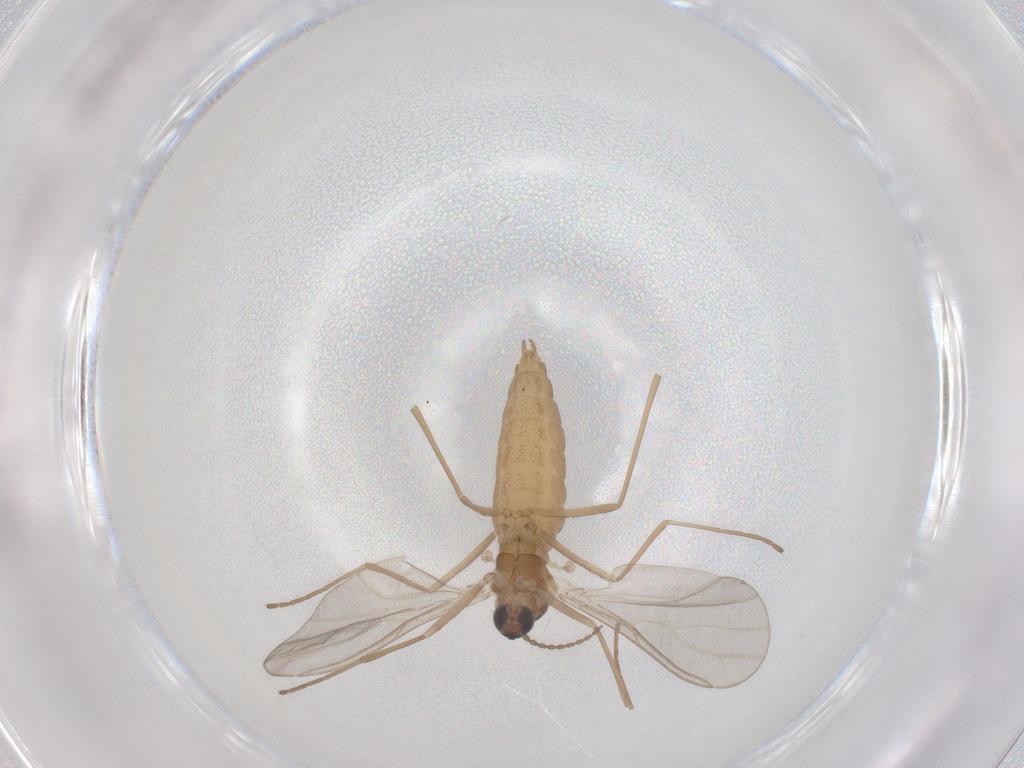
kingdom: Animalia
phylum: Arthropoda
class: Insecta
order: Diptera
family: Cecidomyiidae
